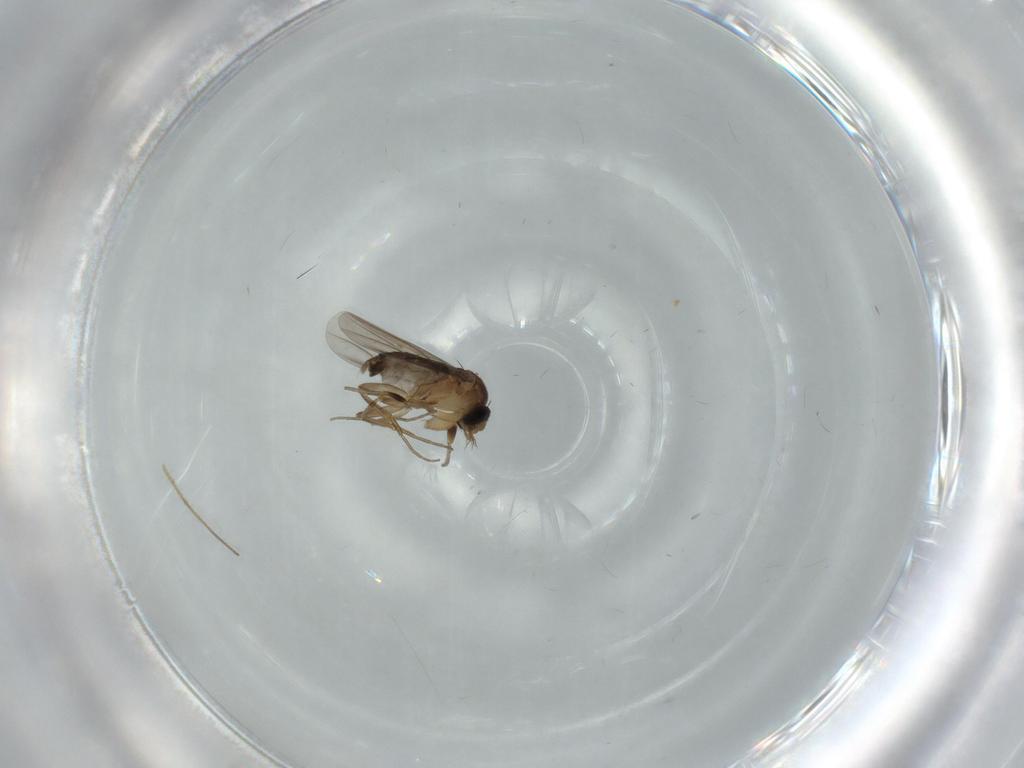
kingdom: Animalia
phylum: Arthropoda
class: Insecta
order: Diptera
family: Phoridae
